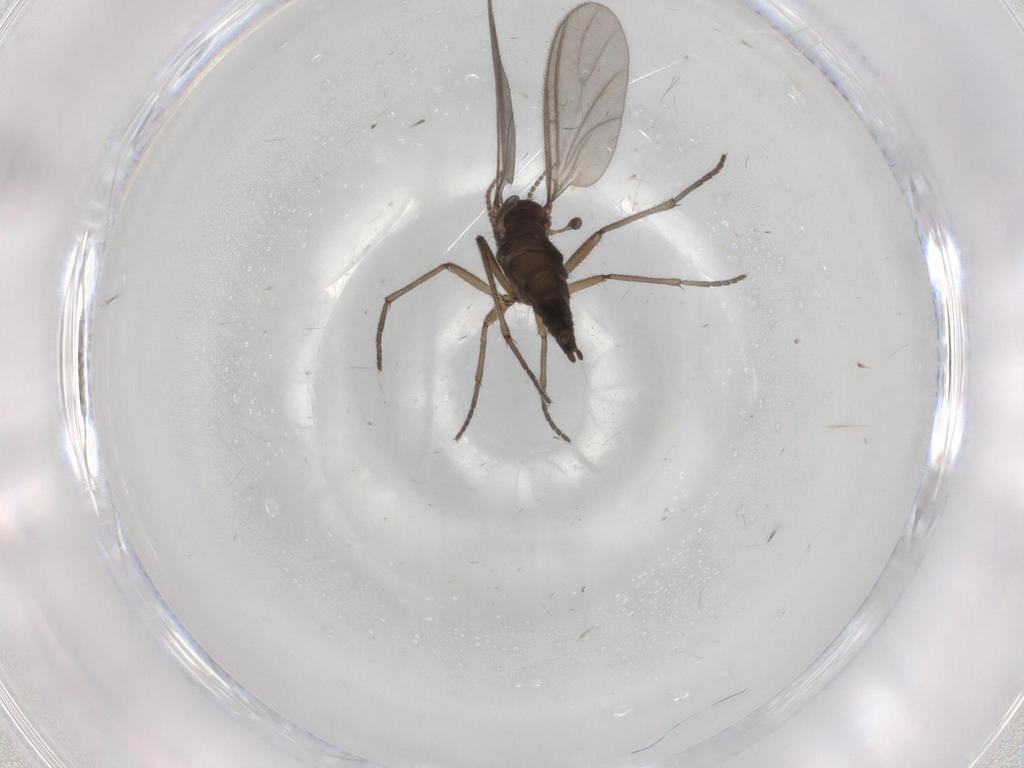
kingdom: Animalia
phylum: Arthropoda
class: Insecta
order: Diptera
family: Sciaridae
